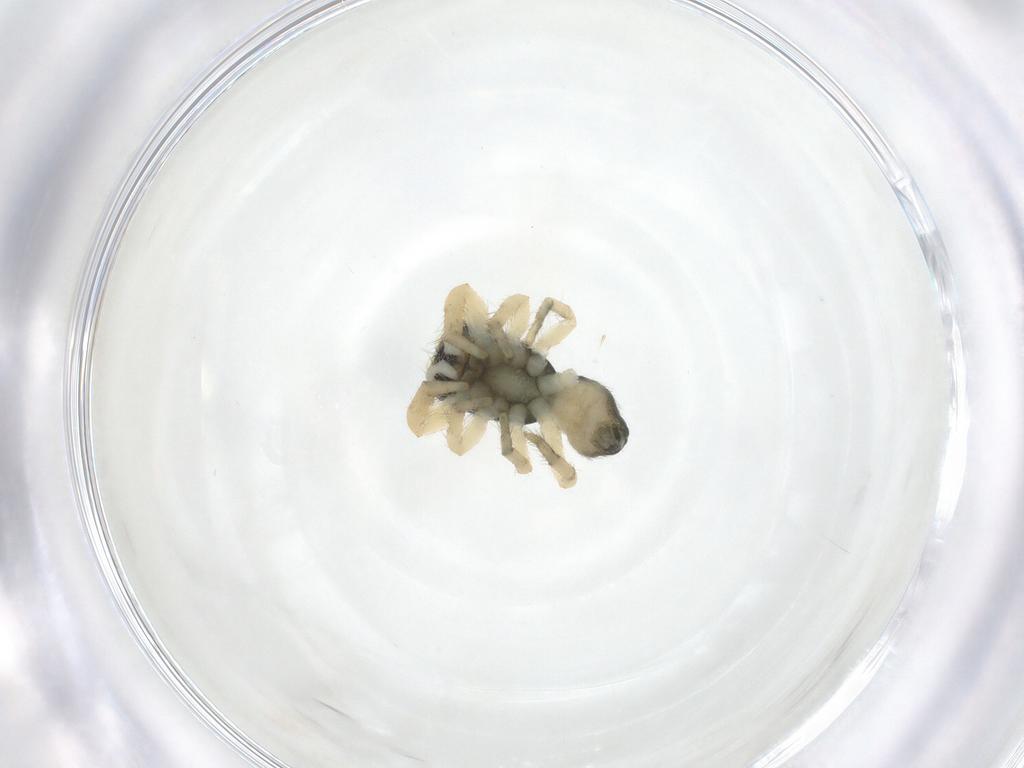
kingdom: Animalia
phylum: Arthropoda
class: Arachnida
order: Araneae
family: Salticidae
